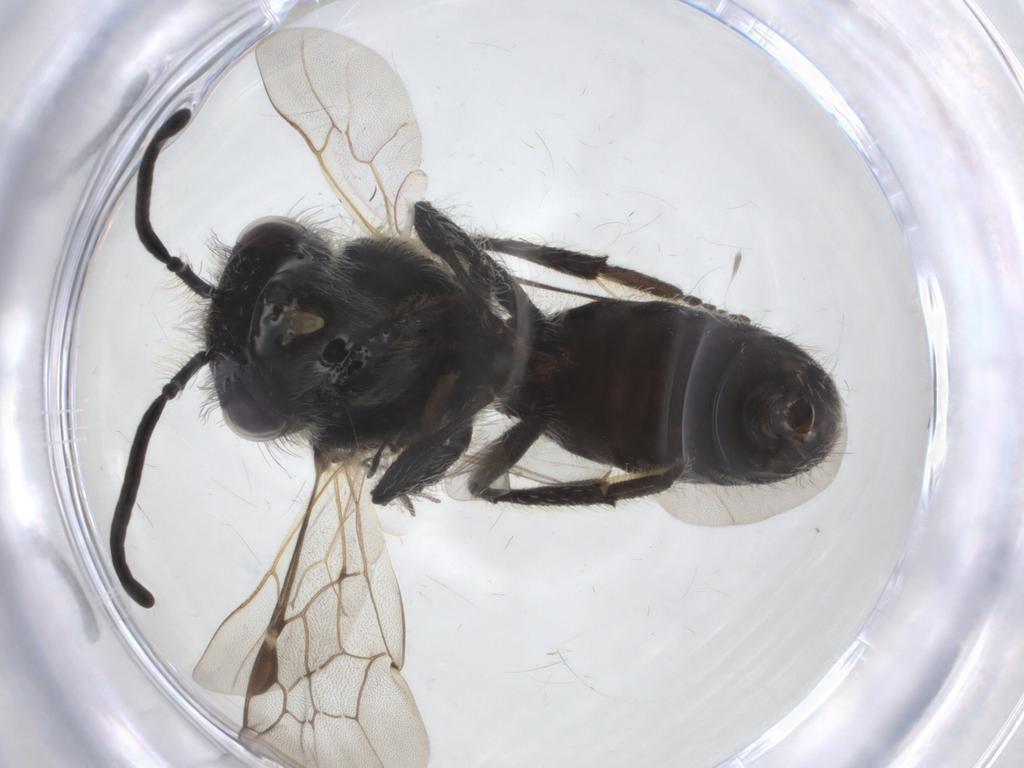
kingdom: Animalia
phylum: Arthropoda
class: Insecta
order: Hymenoptera
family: Andrenidae
